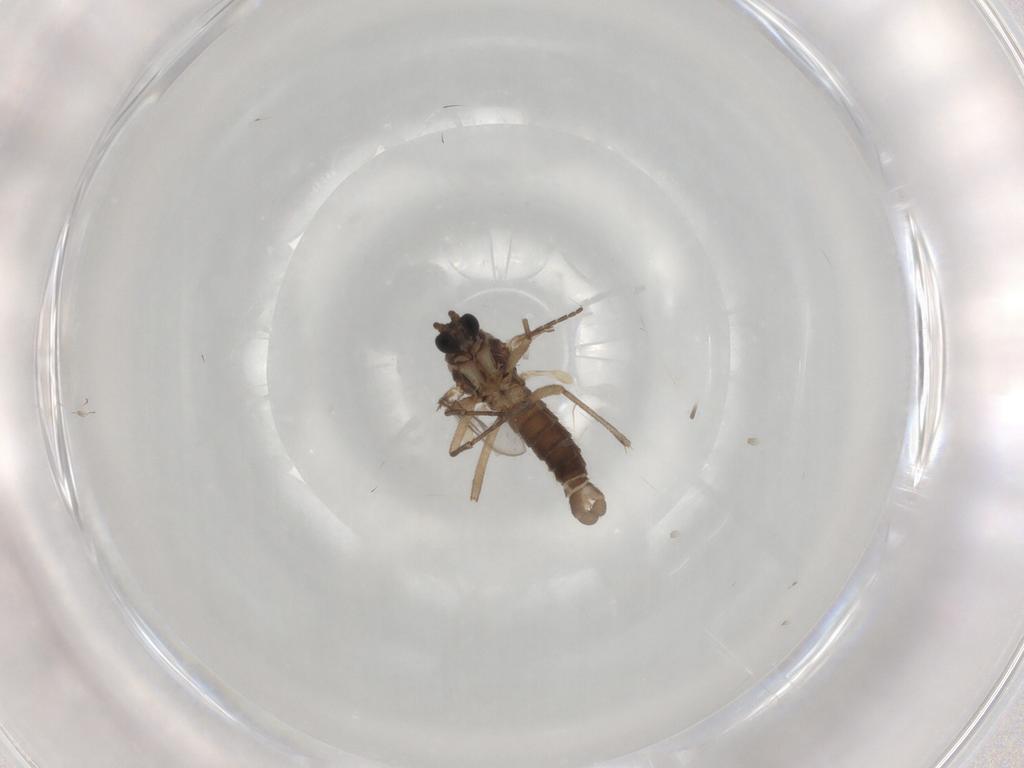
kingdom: Animalia
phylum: Arthropoda
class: Insecta
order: Diptera
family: Sciaridae
